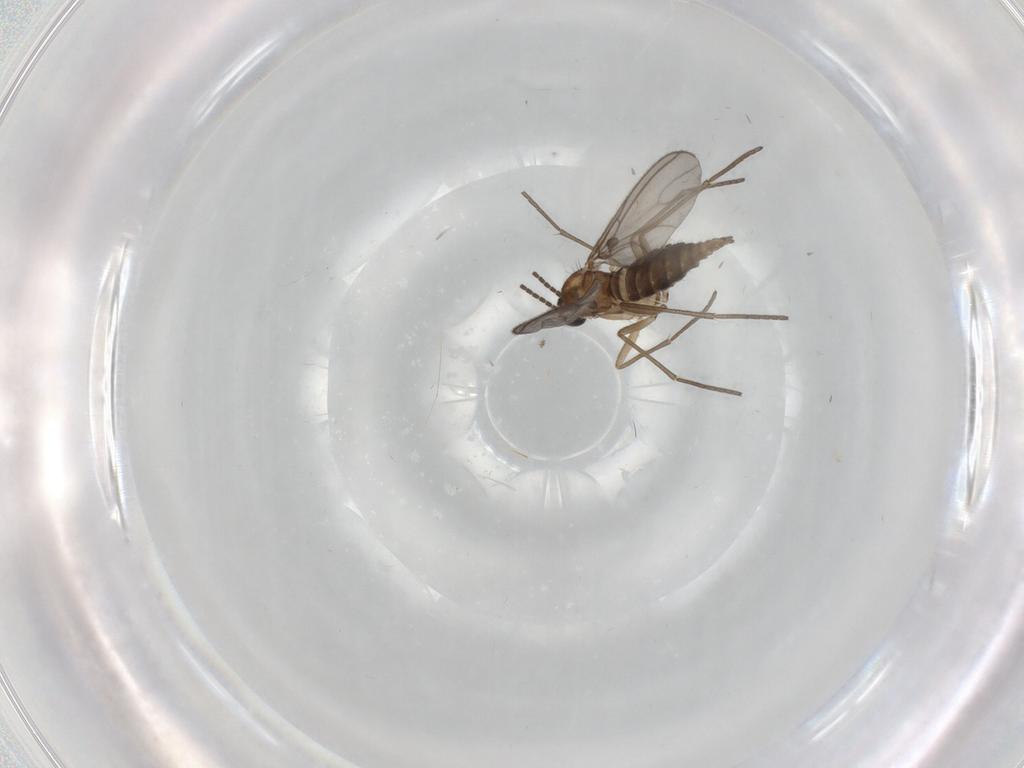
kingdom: Animalia
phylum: Arthropoda
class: Insecta
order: Diptera
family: Sciaridae
